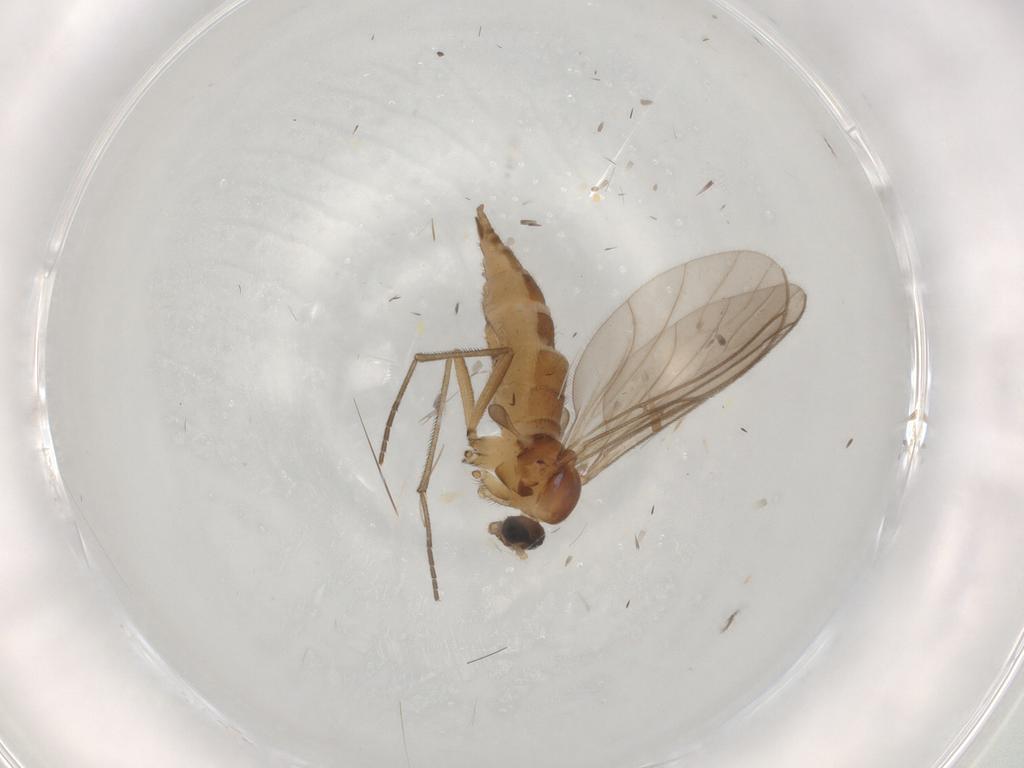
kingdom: Animalia
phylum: Arthropoda
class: Insecta
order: Diptera
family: Sciaridae
